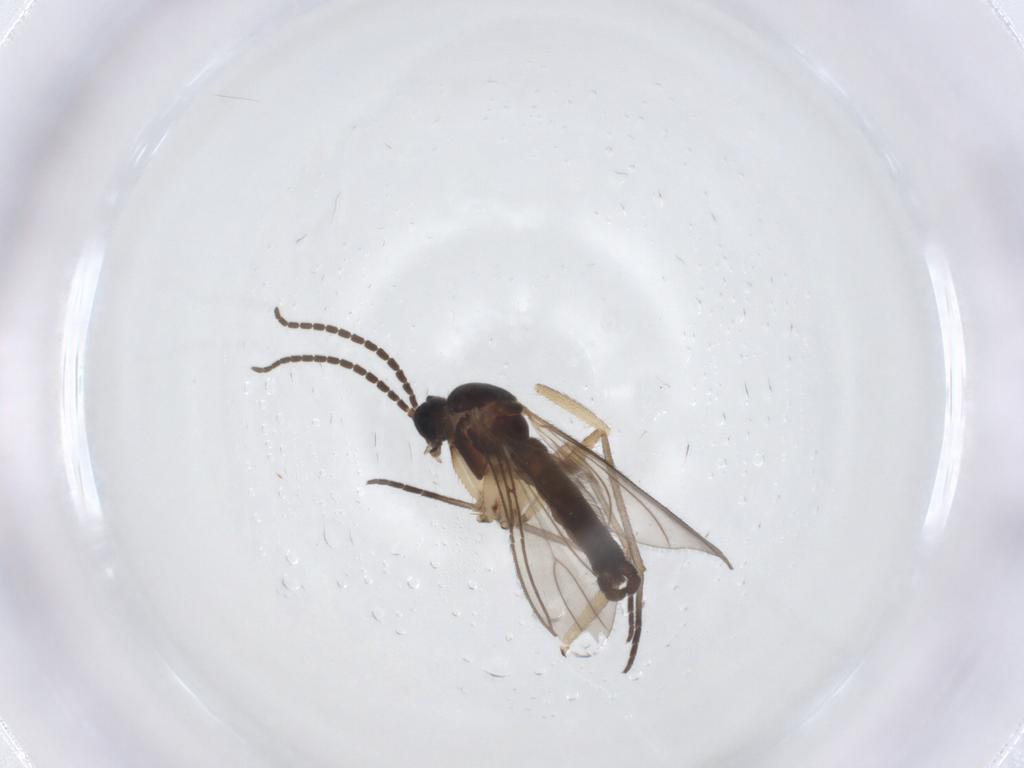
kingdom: Animalia
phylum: Arthropoda
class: Insecta
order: Diptera
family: Sciaridae
